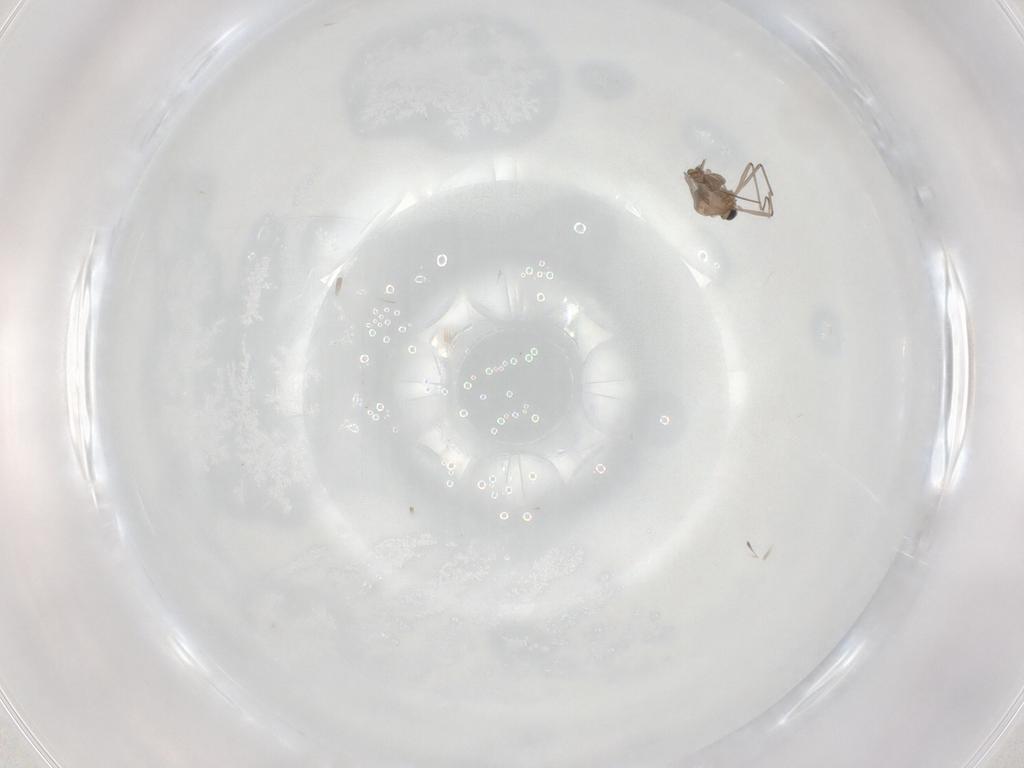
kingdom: Animalia
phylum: Arthropoda
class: Insecta
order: Diptera
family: Chironomidae
